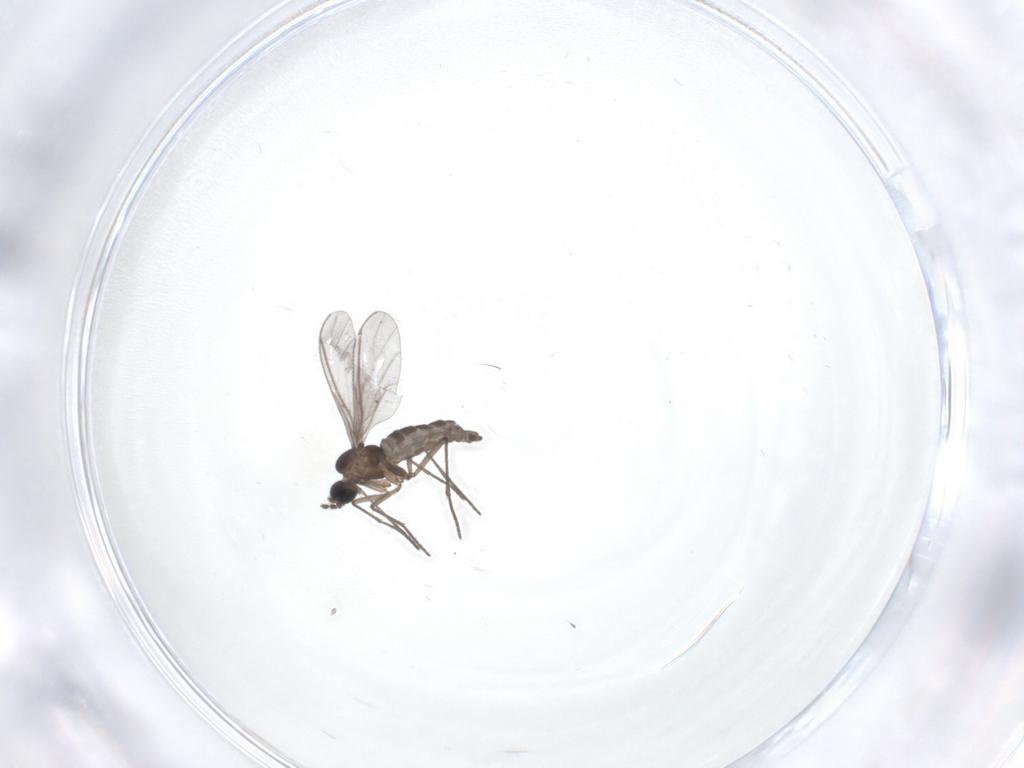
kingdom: Animalia
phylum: Arthropoda
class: Insecta
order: Diptera
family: Sciaridae
